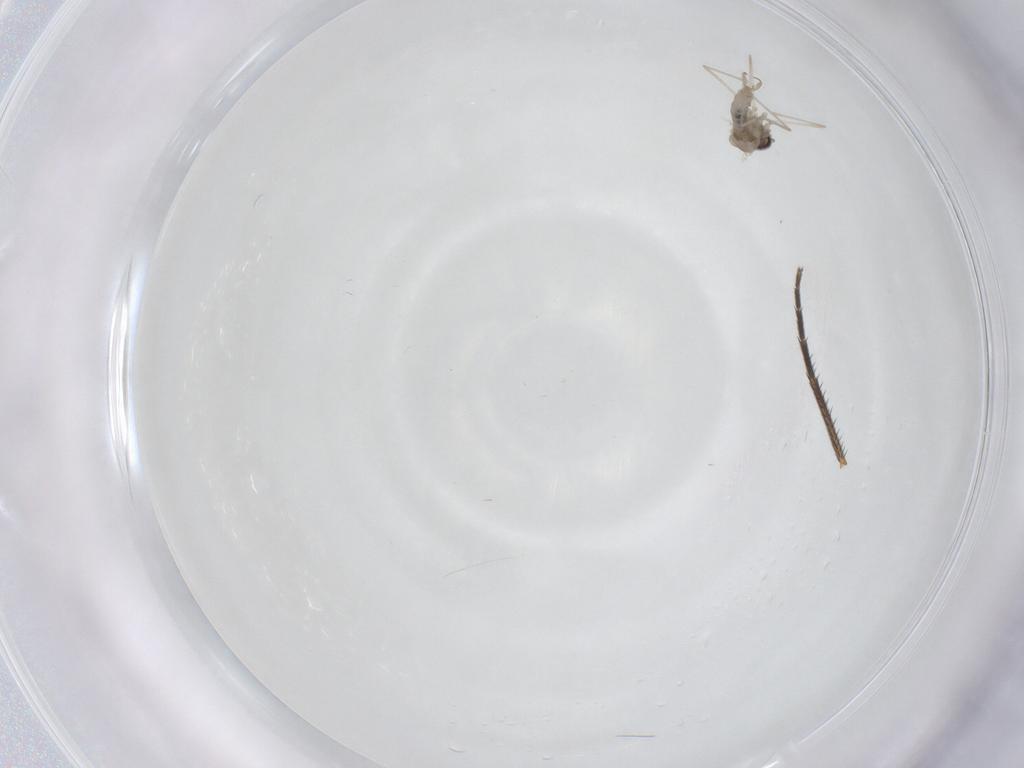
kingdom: Animalia
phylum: Arthropoda
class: Insecta
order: Diptera
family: Cecidomyiidae
